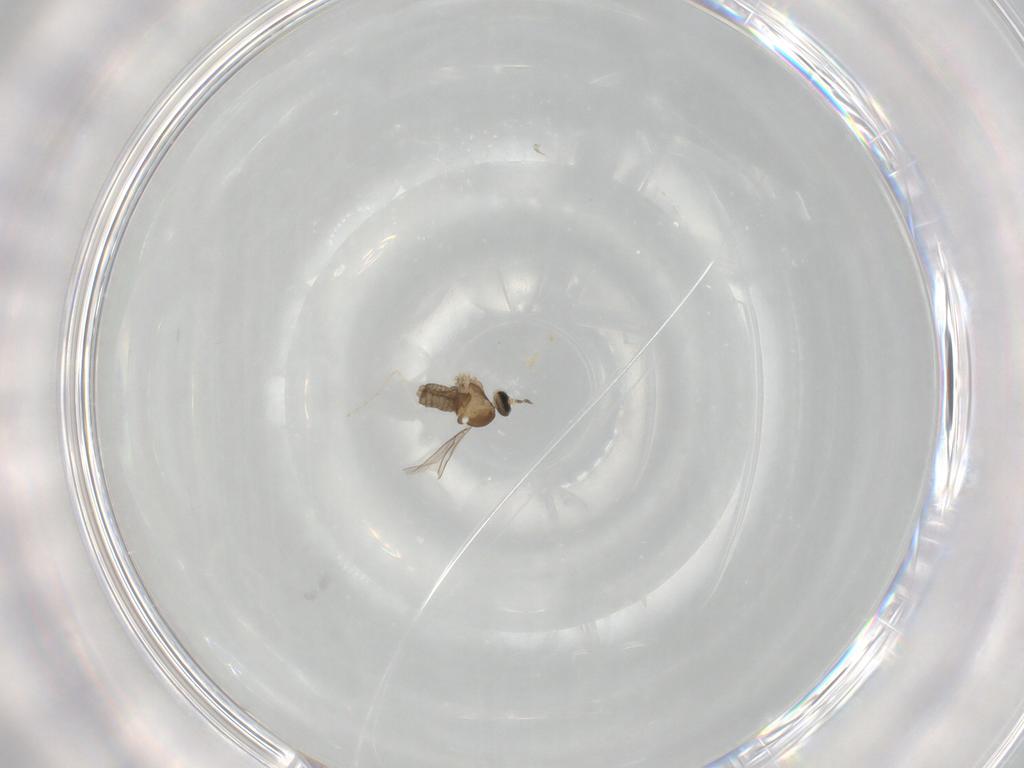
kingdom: Animalia
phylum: Arthropoda
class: Insecta
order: Diptera
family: Cecidomyiidae
